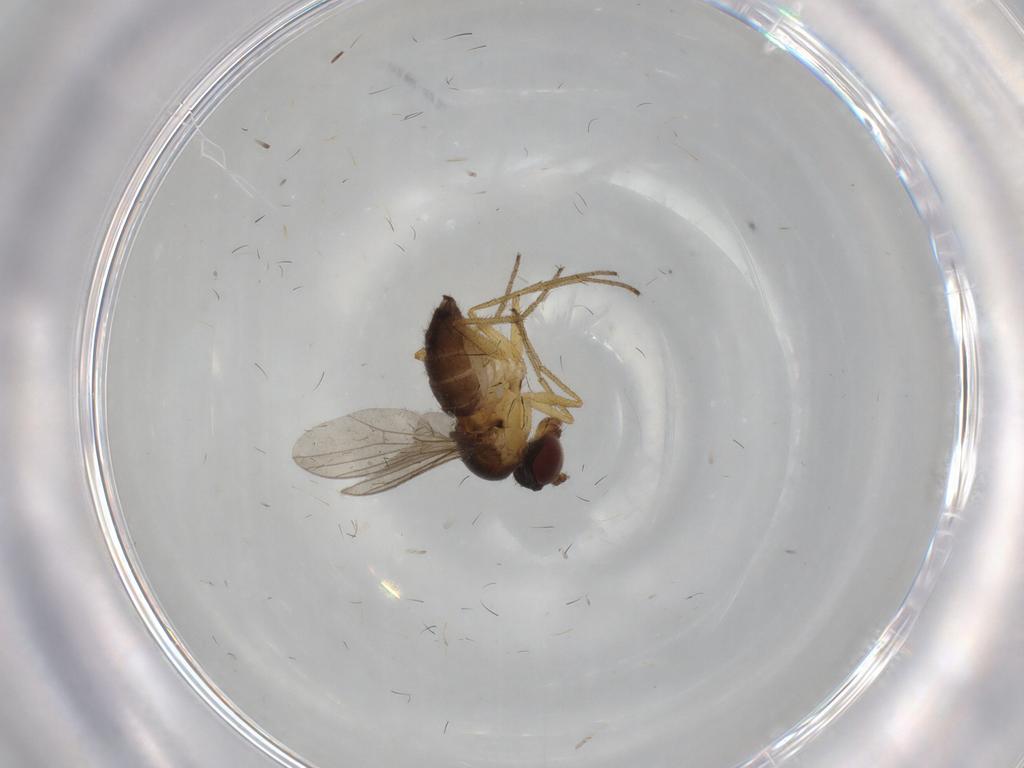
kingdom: Animalia
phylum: Arthropoda
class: Insecta
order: Diptera
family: Dolichopodidae
